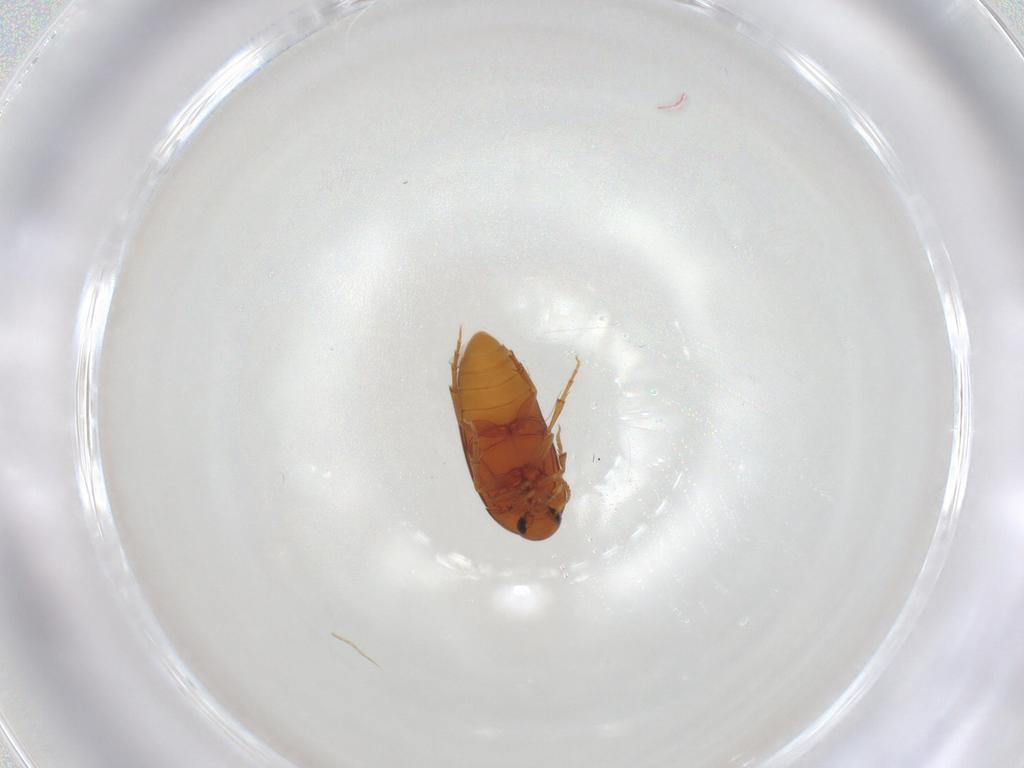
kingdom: Animalia
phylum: Arthropoda
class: Insecta
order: Coleoptera
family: Scraptiidae
